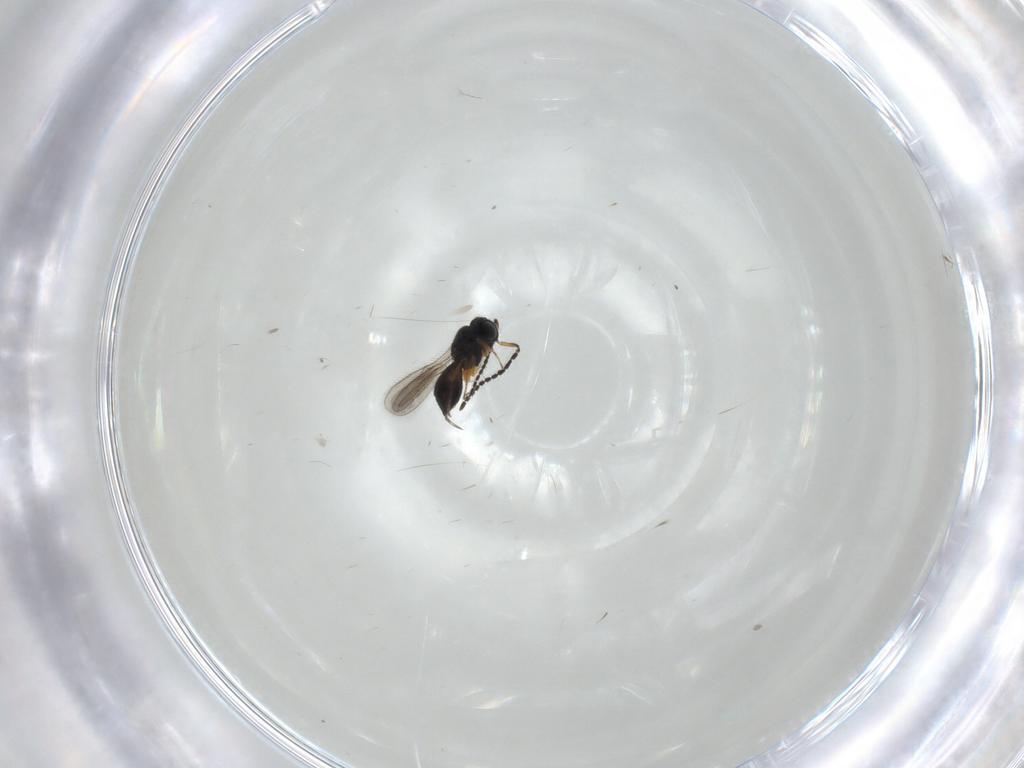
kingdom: Animalia
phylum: Arthropoda
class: Insecta
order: Hymenoptera
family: Scelionidae
